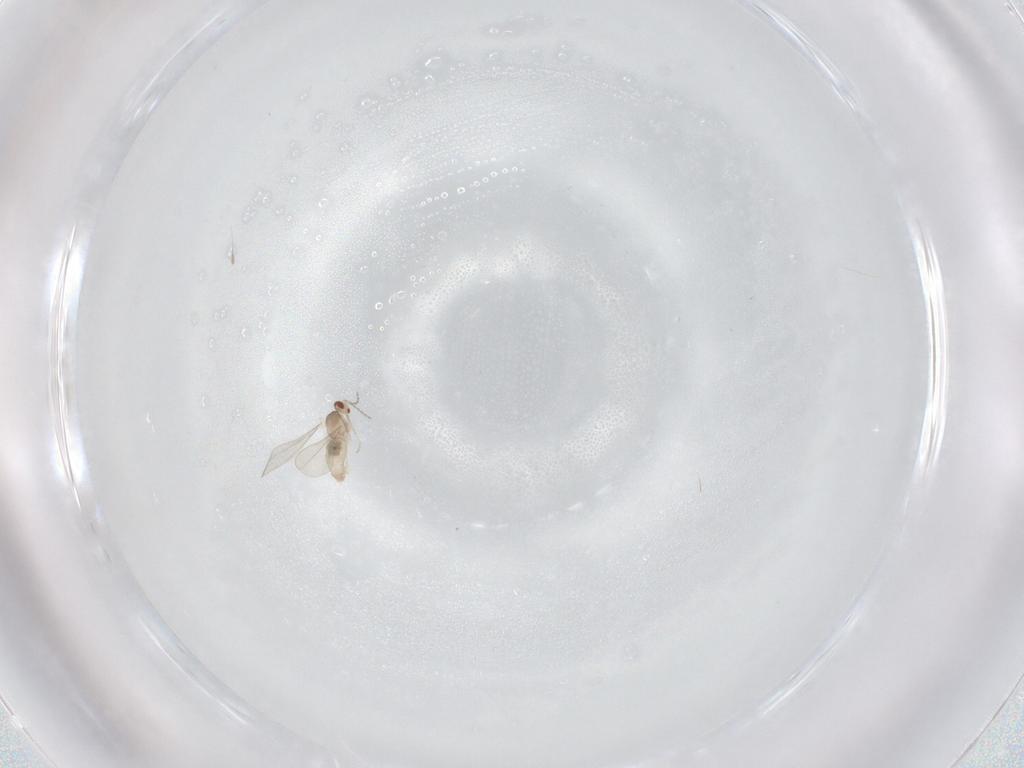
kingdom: Animalia
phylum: Arthropoda
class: Insecta
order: Diptera
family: Cecidomyiidae
